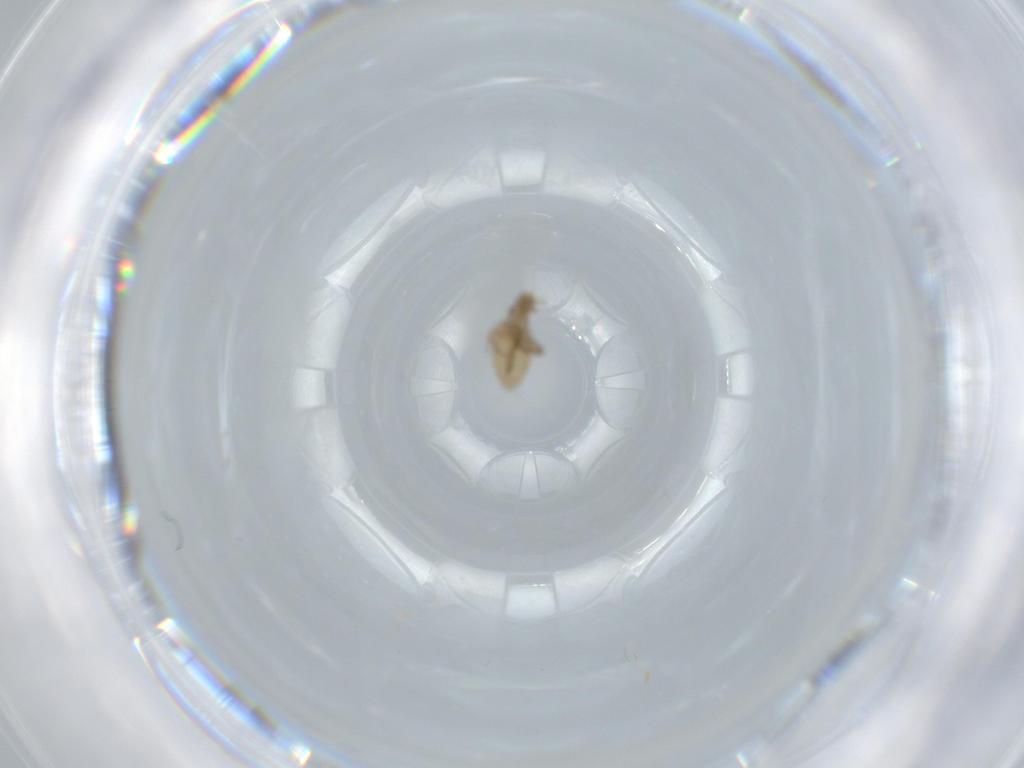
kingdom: Animalia
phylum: Arthropoda
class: Insecta
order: Diptera
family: Phoridae
